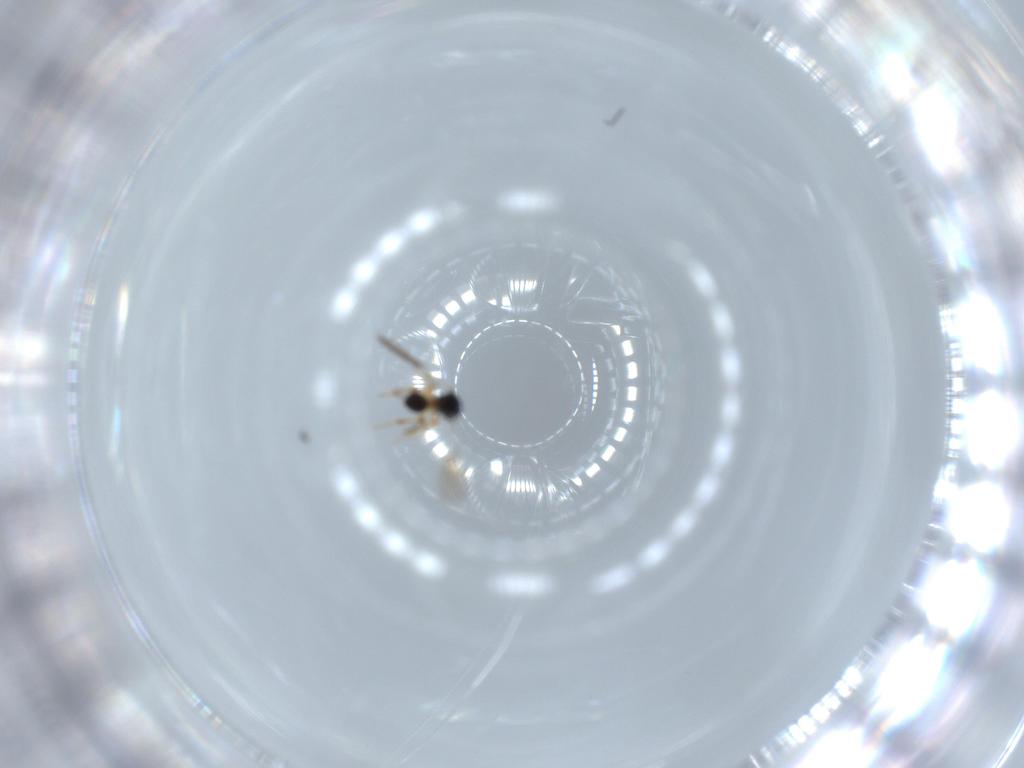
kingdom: Animalia
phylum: Arthropoda
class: Insecta
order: Hymenoptera
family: Platygastridae
